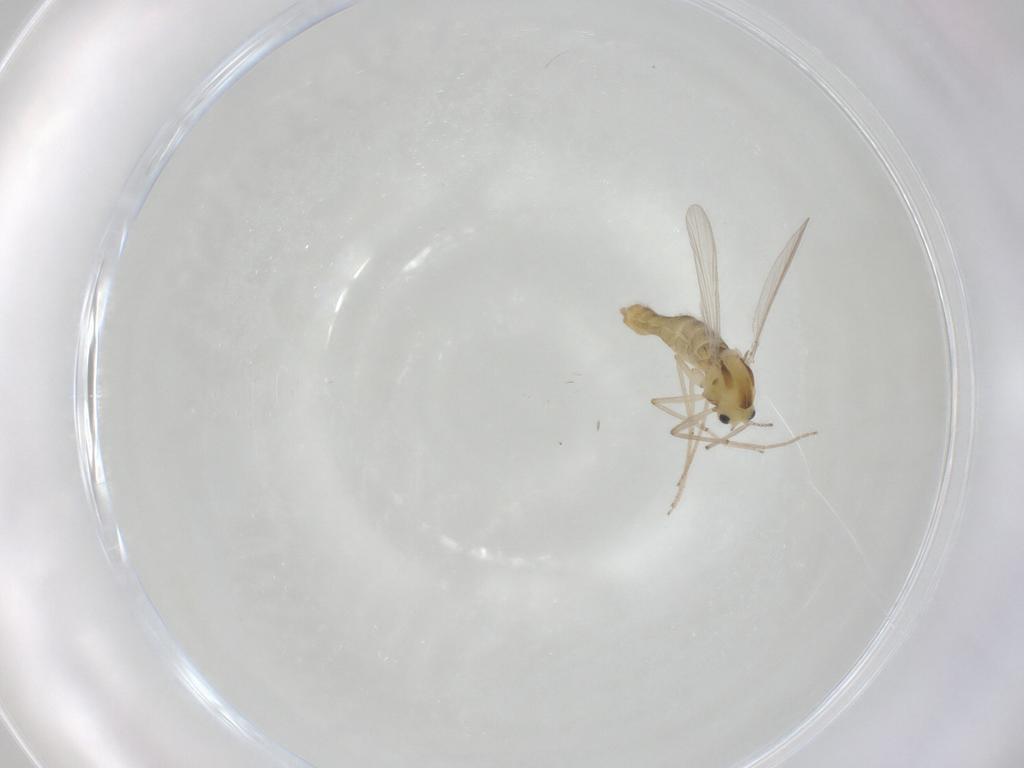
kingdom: Animalia
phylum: Arthropoda
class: Insecta
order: Diptera
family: Chironomidae
